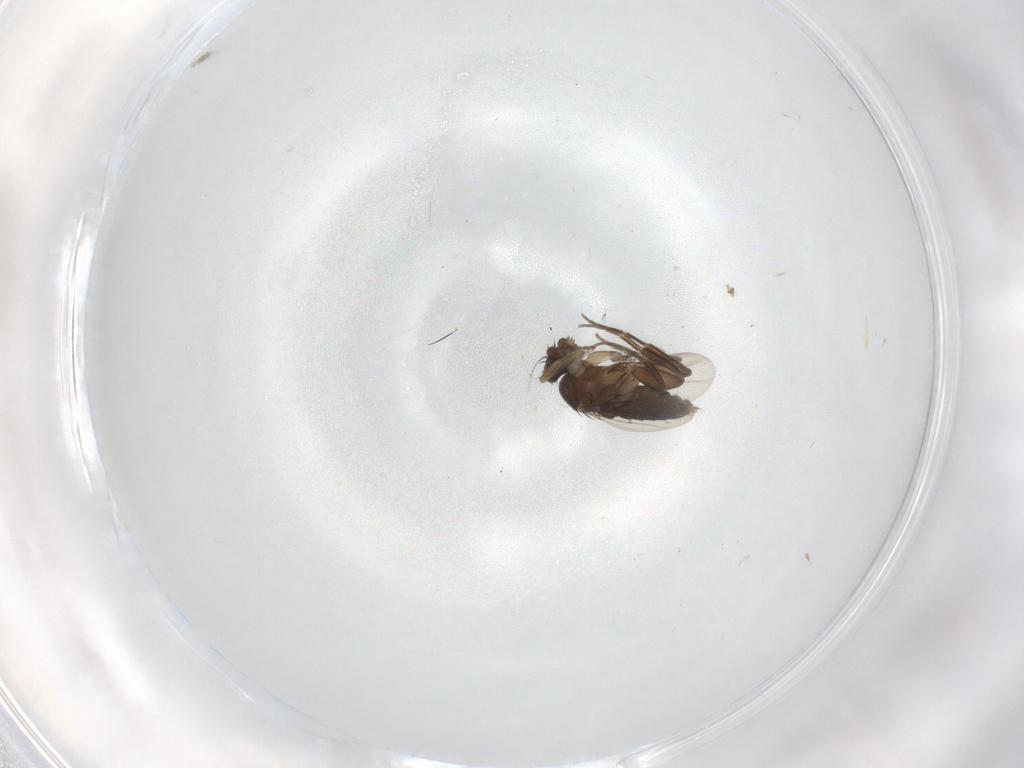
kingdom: Animalia
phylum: Arthropoda
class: Insecta
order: Diptera
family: Phoridae
